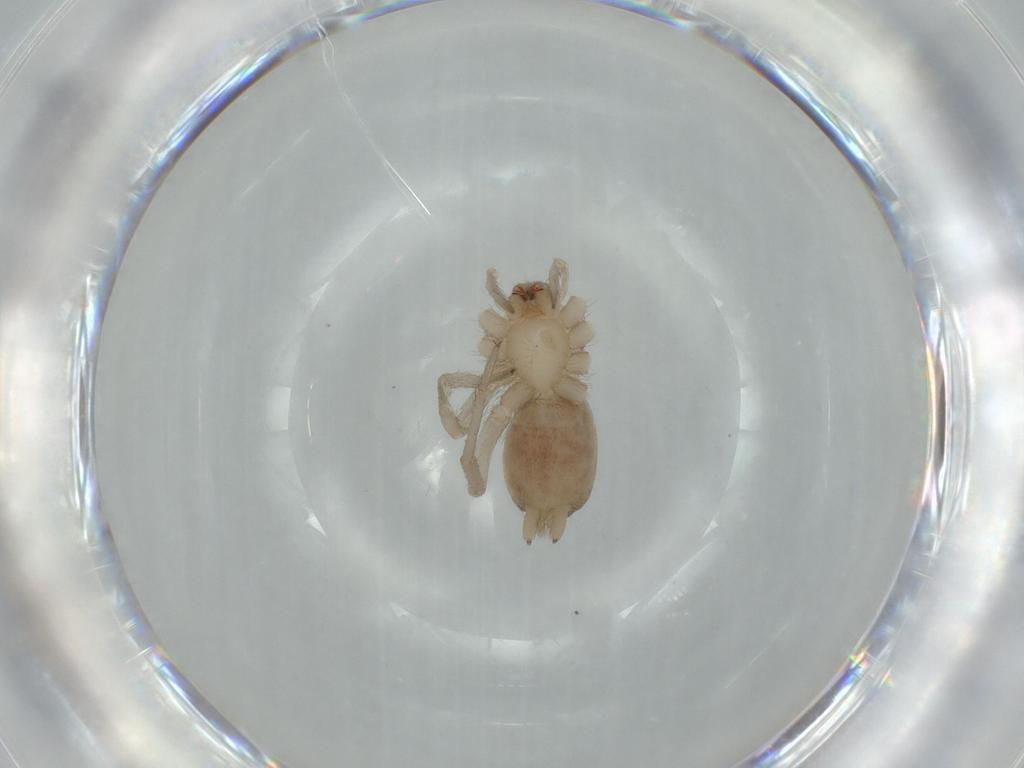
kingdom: Animalia
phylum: Arthropoda
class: Arachnida
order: Araneae
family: Gnaphosidae
